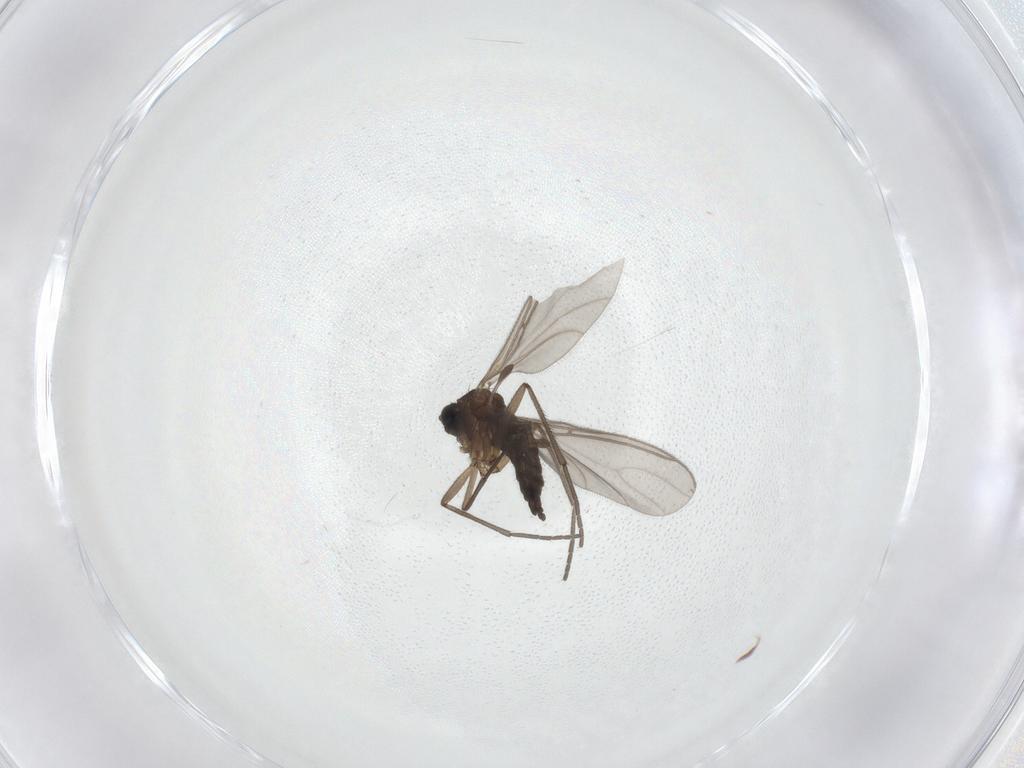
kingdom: Animalia
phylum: Arthropoda
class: Insecta
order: Diptera
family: Sciaridae
